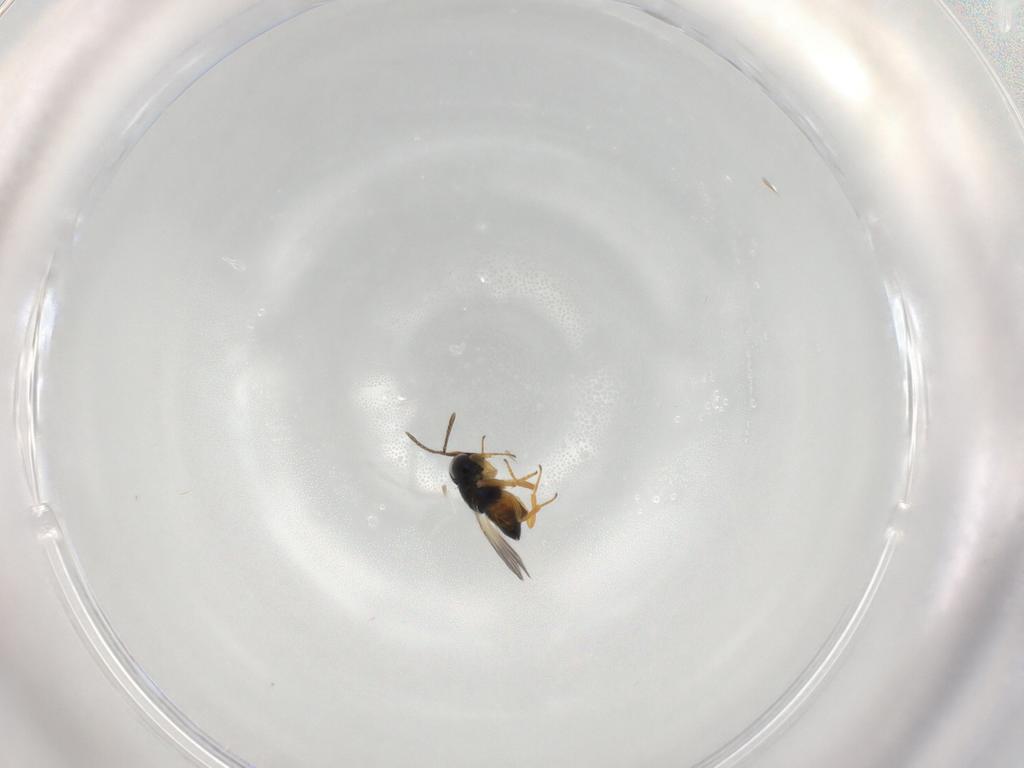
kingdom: Animalia
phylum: Arthropoda
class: Insecta
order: Hymenoptera
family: Encyrtidae
